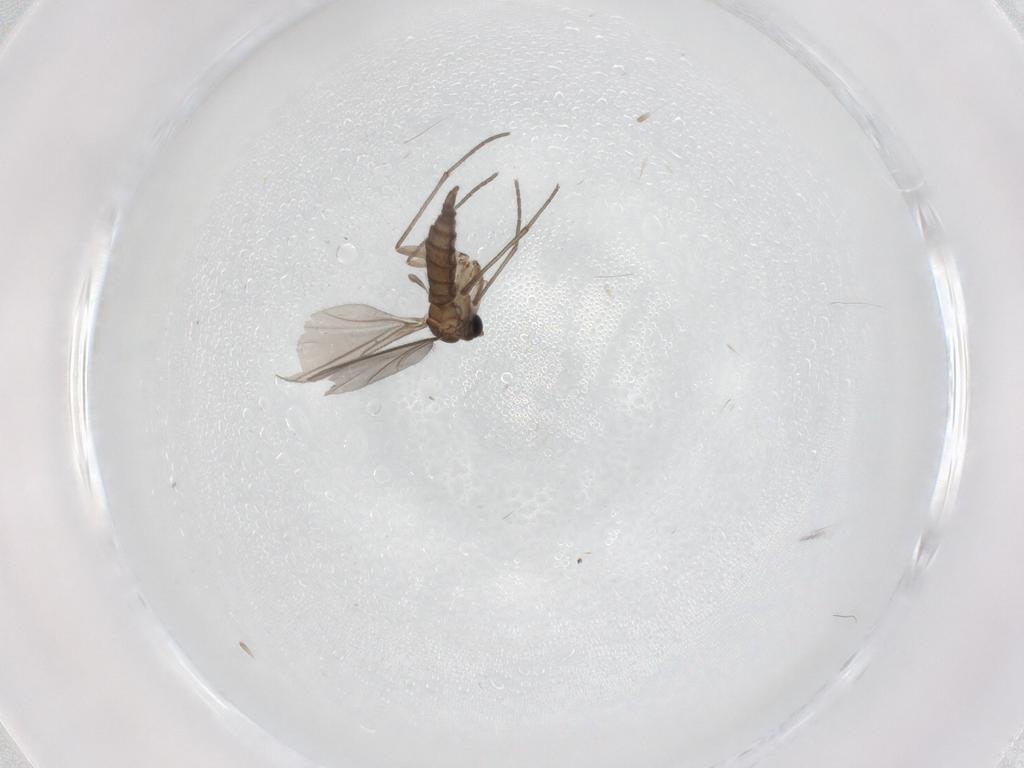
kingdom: Animalia
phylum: Arthropoda
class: Insecta
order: Diptera
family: Sciaridae
